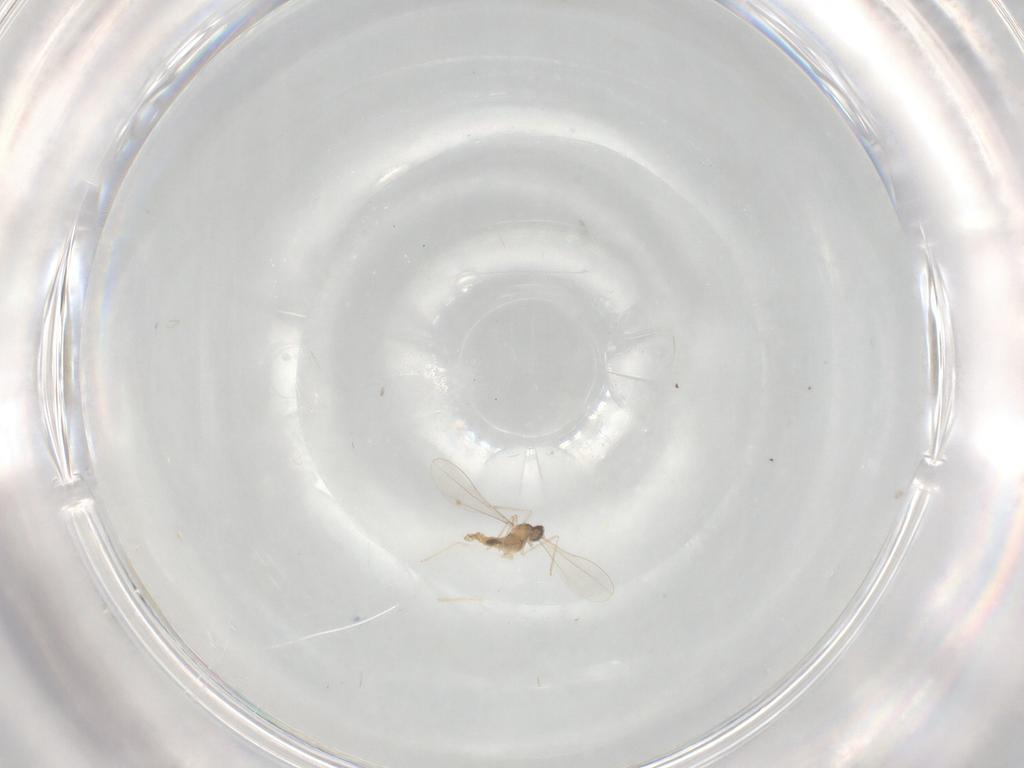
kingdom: Animalia
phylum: Arthropoda
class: Insecta
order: Diptera
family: Cecidomyiidae
